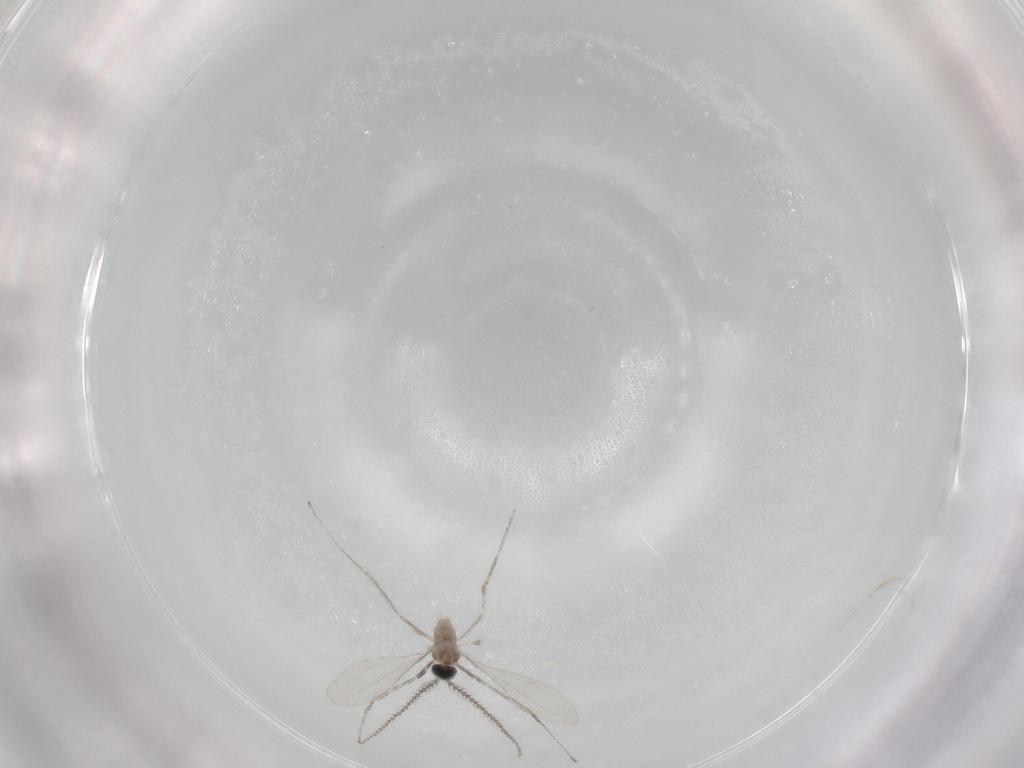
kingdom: Animalia
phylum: Arthropoda
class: Insecta
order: Diptera
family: Cecidomyiidae
